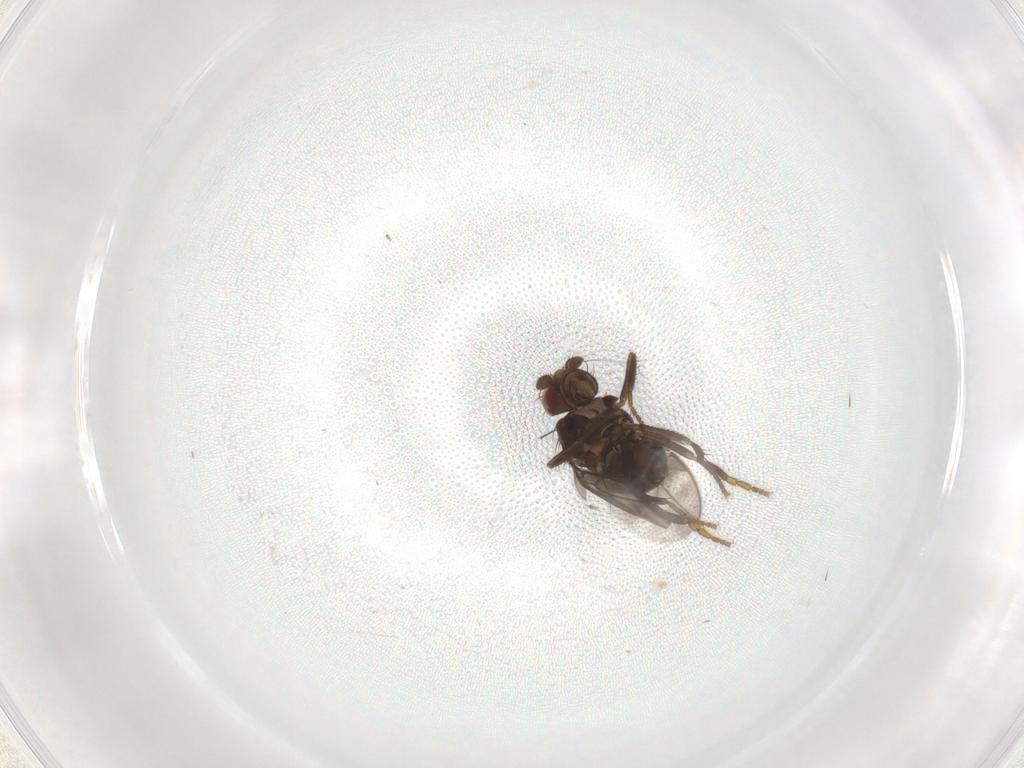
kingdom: Animalia
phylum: Arthropoda
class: Insecta
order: Diptera
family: Sphaeroceridae
